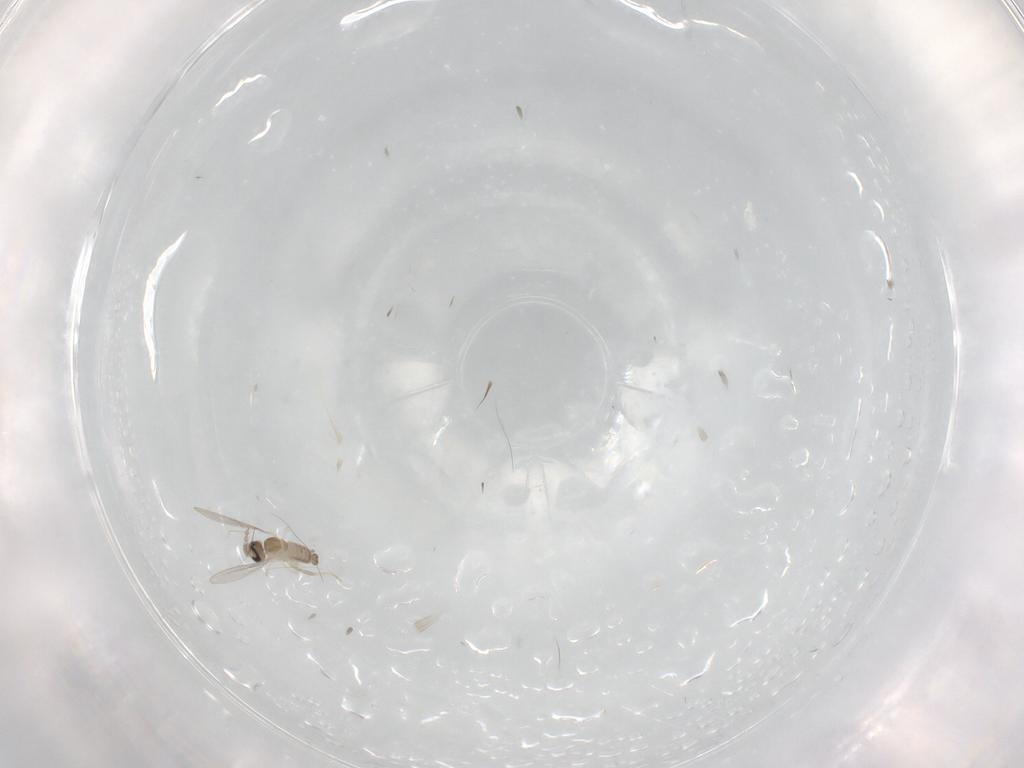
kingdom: Animalia
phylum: Arthropoda
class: Insecta
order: Diptera
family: Cecidomyiidae
